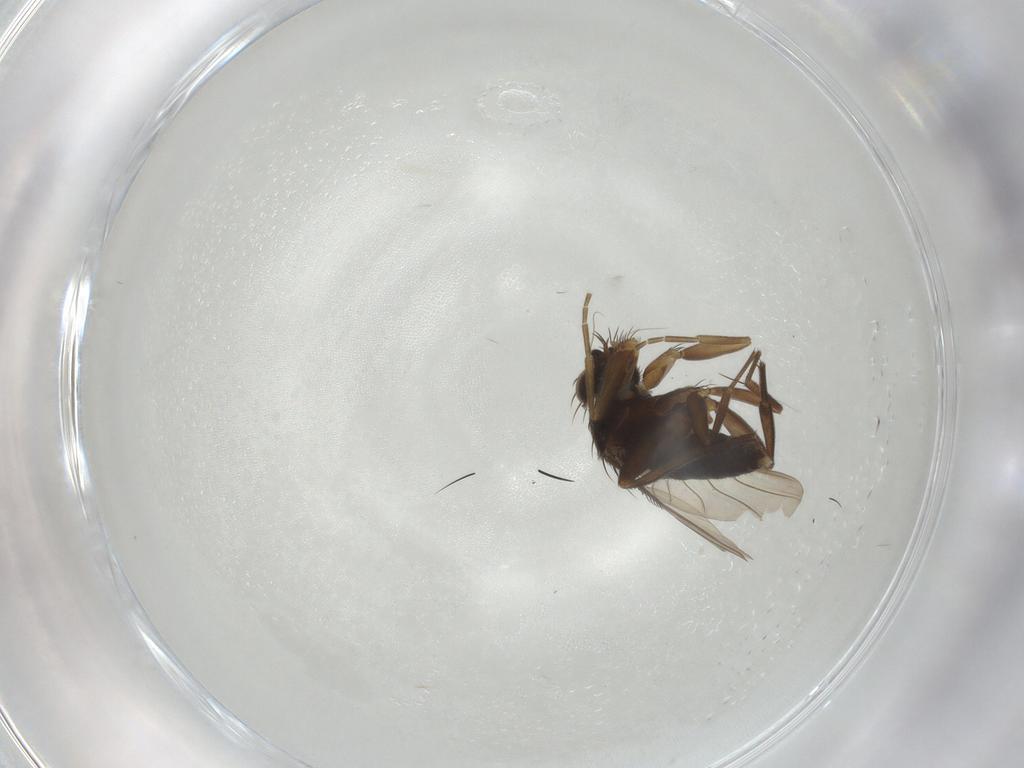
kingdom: Animalia
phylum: Arthropoda
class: Insecta
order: Diptera
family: Phoridae
